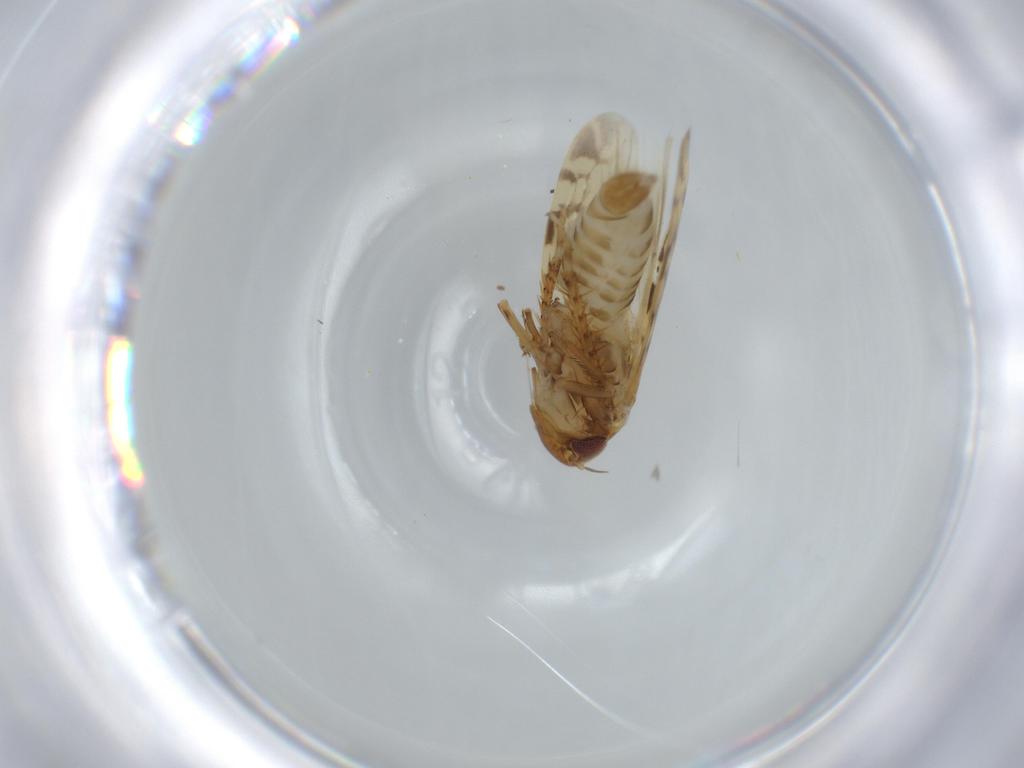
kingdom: Animalia
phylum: Arthropoda
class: Insecta
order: Hemiptera
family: Cicadellidae
